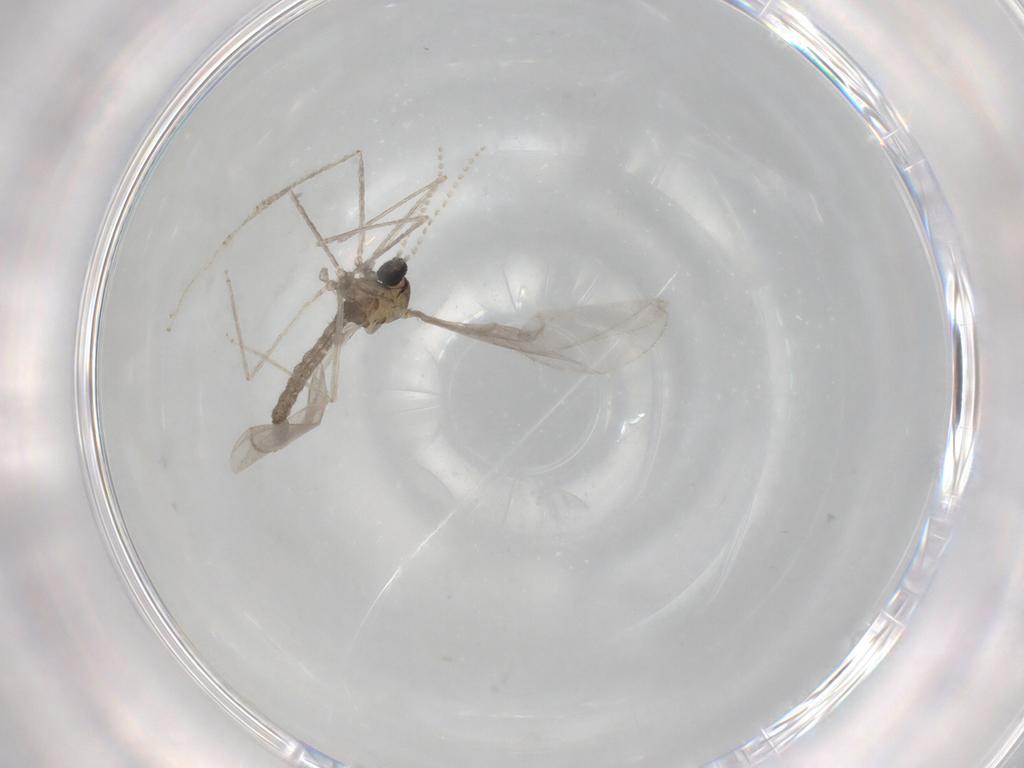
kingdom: Animalia
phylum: Arthropoda
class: Insecta
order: Diptera
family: Cecidomyiidae
